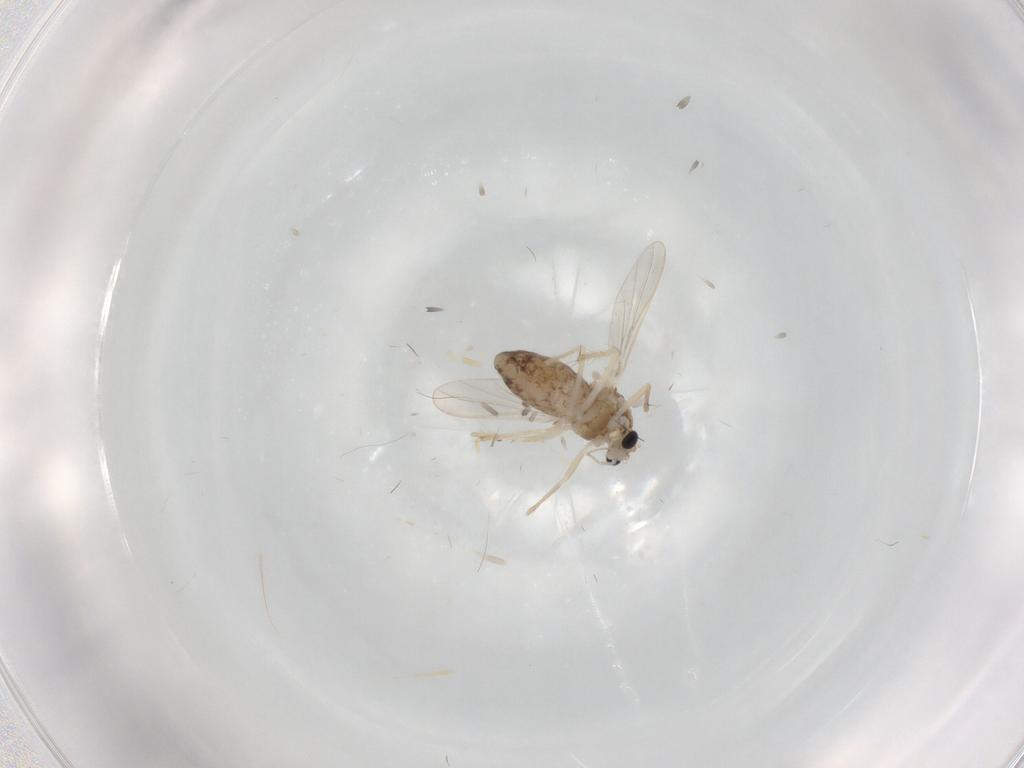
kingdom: Animalia
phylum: Arthropoda
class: Insecta
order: Diptera
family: Chironomidae
